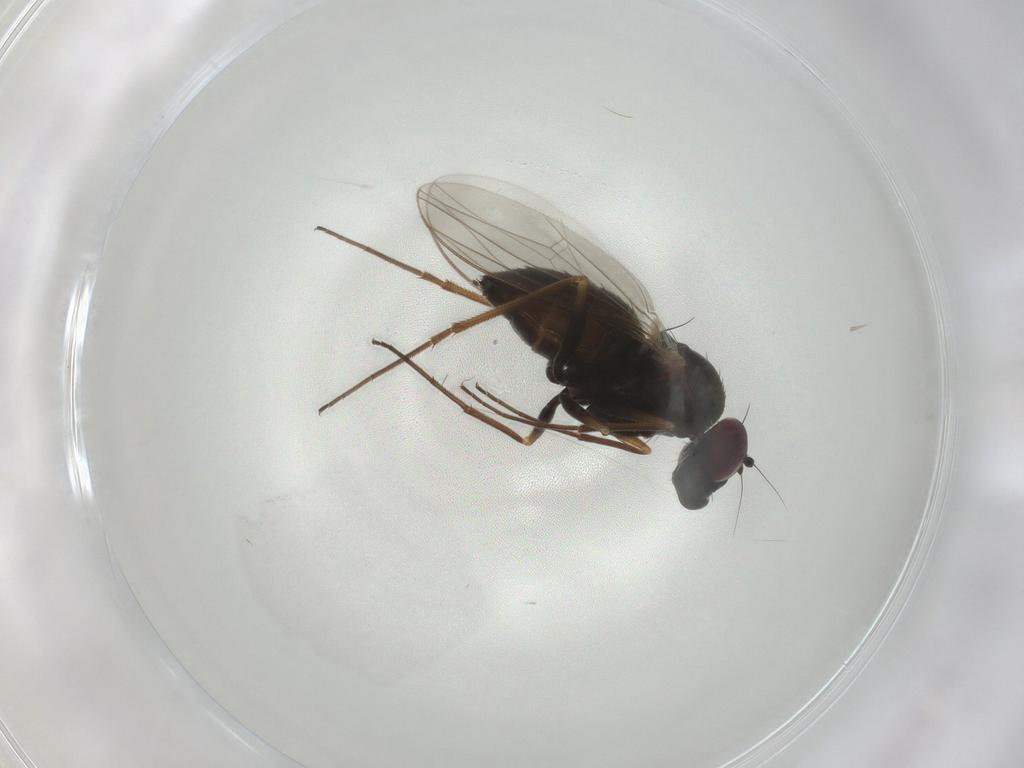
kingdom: Animalia
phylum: Arthropoda
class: Insecta
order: Diptera
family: Dolichopodidae
